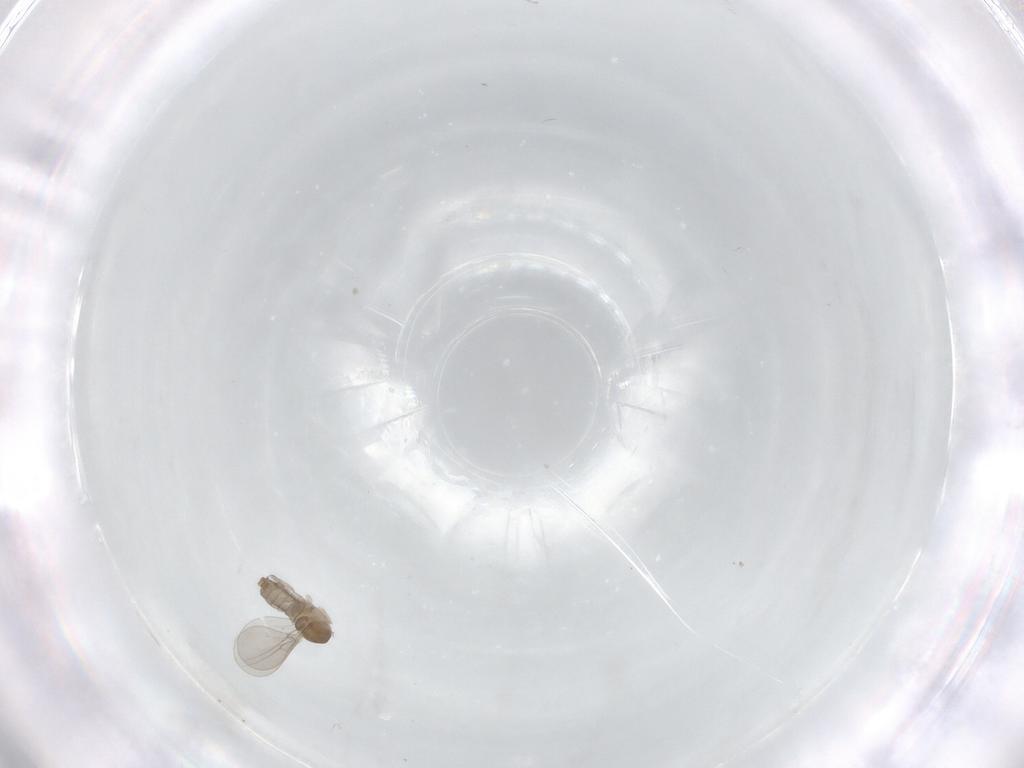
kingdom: Animalia
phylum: Arthropoda
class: Insecta
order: Diptera
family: Cecidomyiidae
